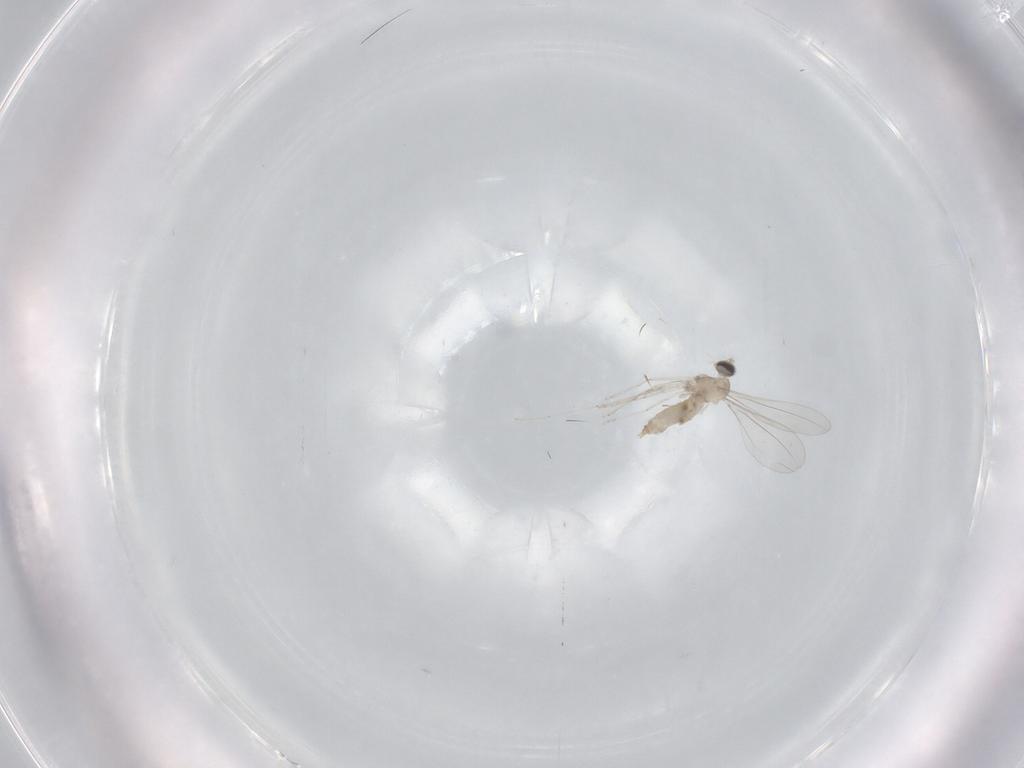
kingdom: Animalia
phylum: Arthropoda
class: Insecta
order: Diptera
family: Cecidomyiidae
